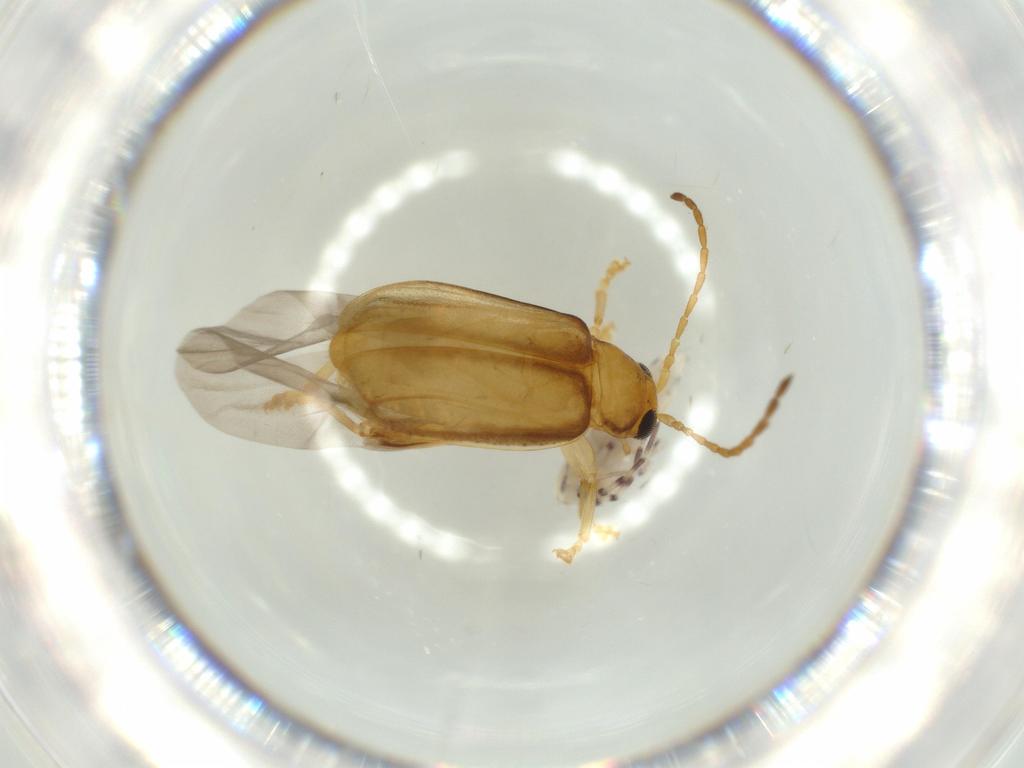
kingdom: Animalia
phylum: Arthropoda
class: Collembola
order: Entomobryomorpha
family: Entomobryidae
